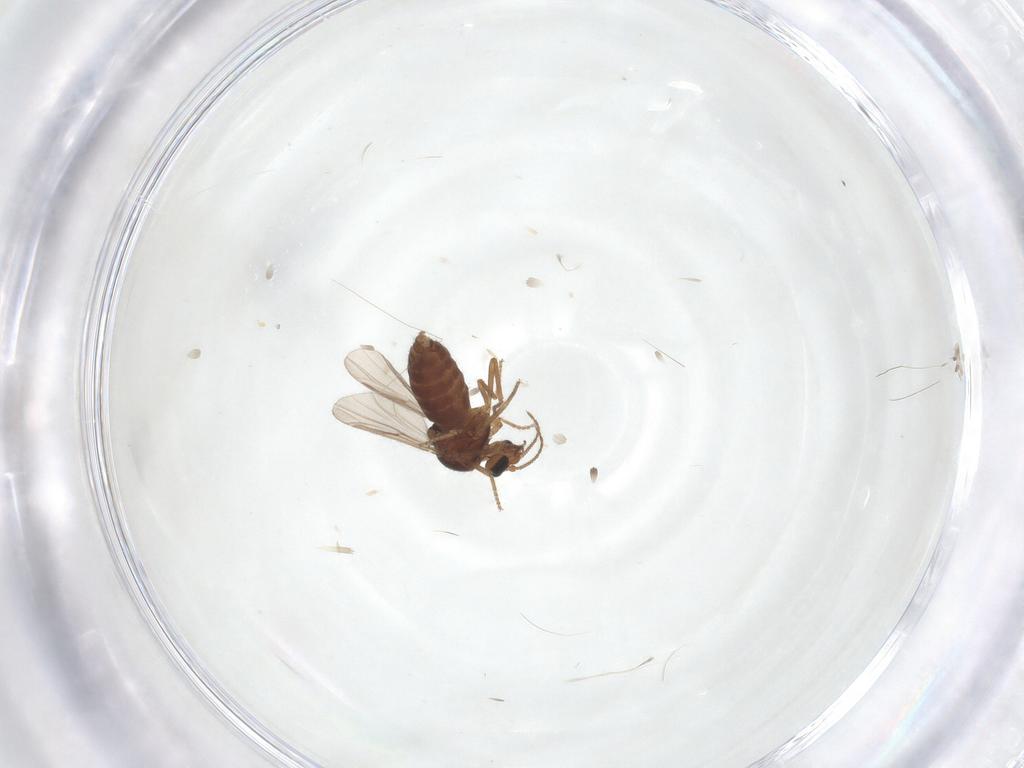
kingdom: Animalia
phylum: Arthropoda
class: Insecta
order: Diptera
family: Ceratopogonidae
